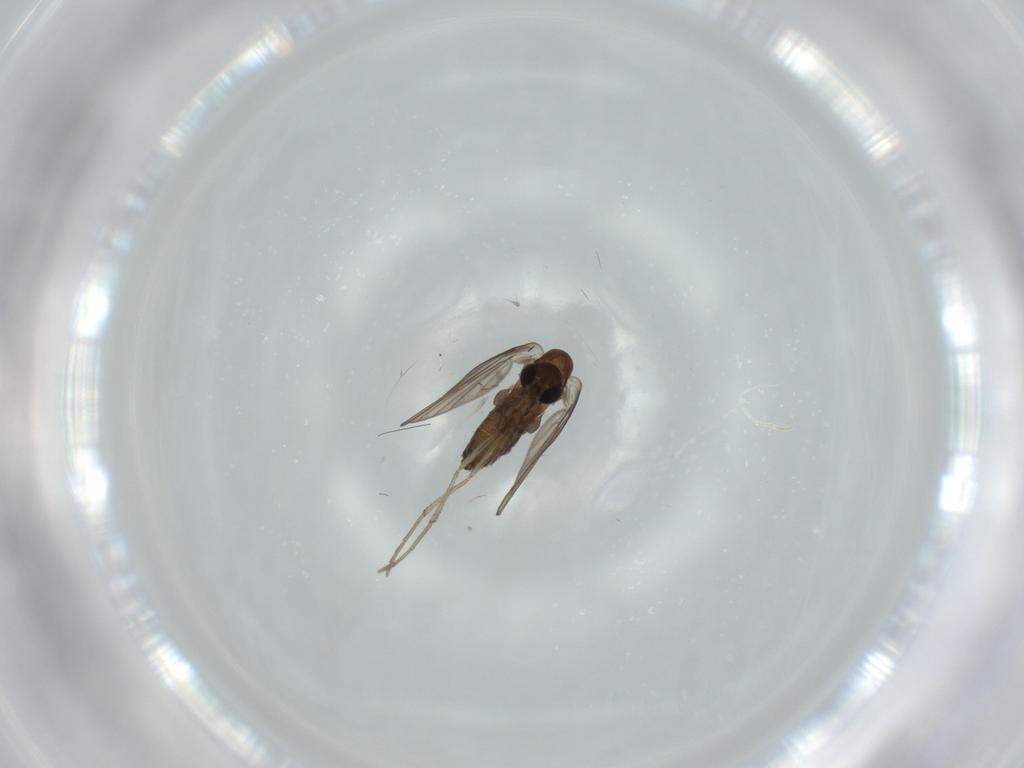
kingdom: Animalia
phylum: Arthropoda
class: Insecta
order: Diptera
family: Psychodidae
